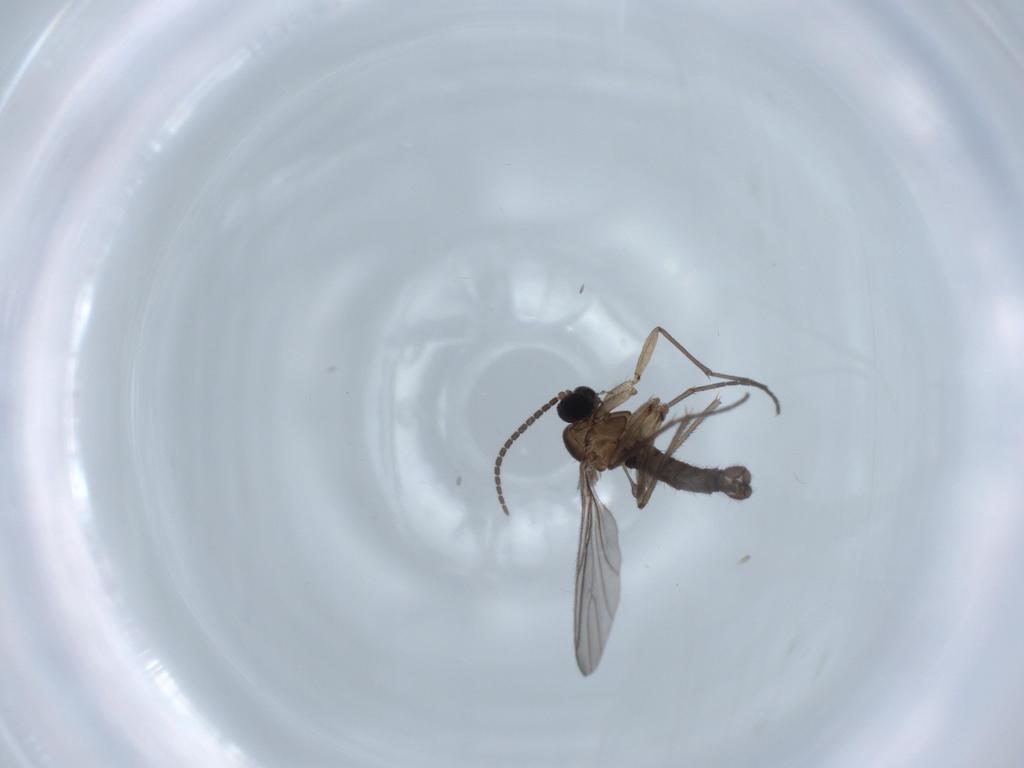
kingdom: Animalia
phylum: Arthropoda
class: Insecta
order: Diptera
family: Sciaridae
